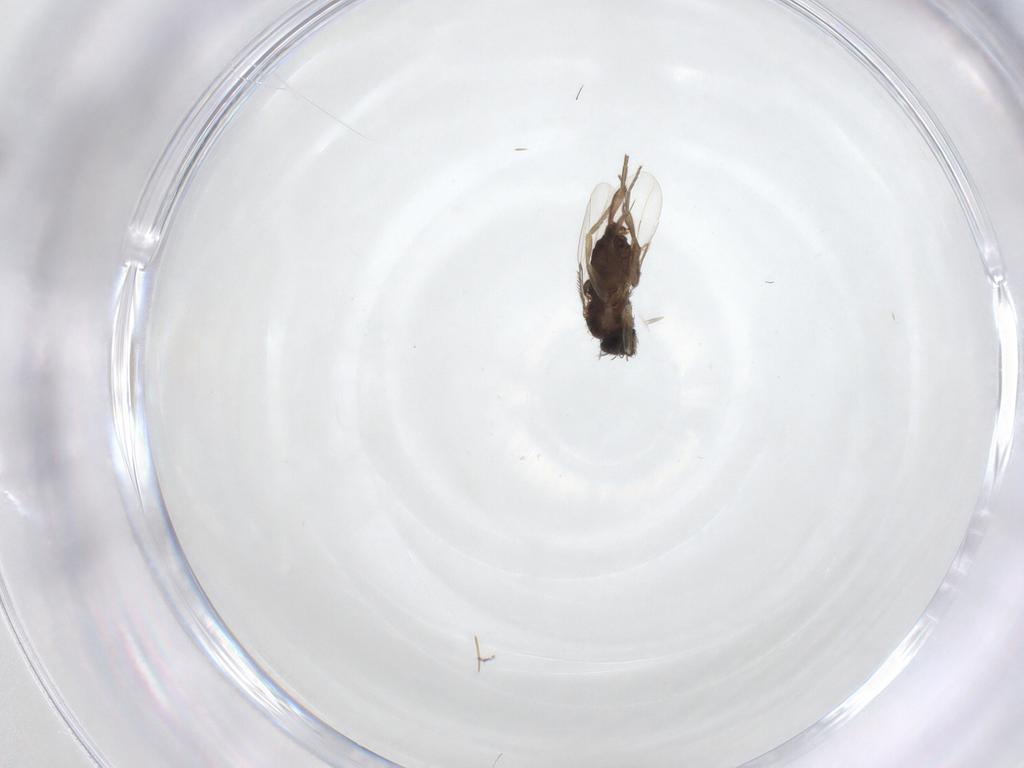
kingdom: Animalia
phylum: Arthropoda
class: Insecta
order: Diptera
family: Phoridae
